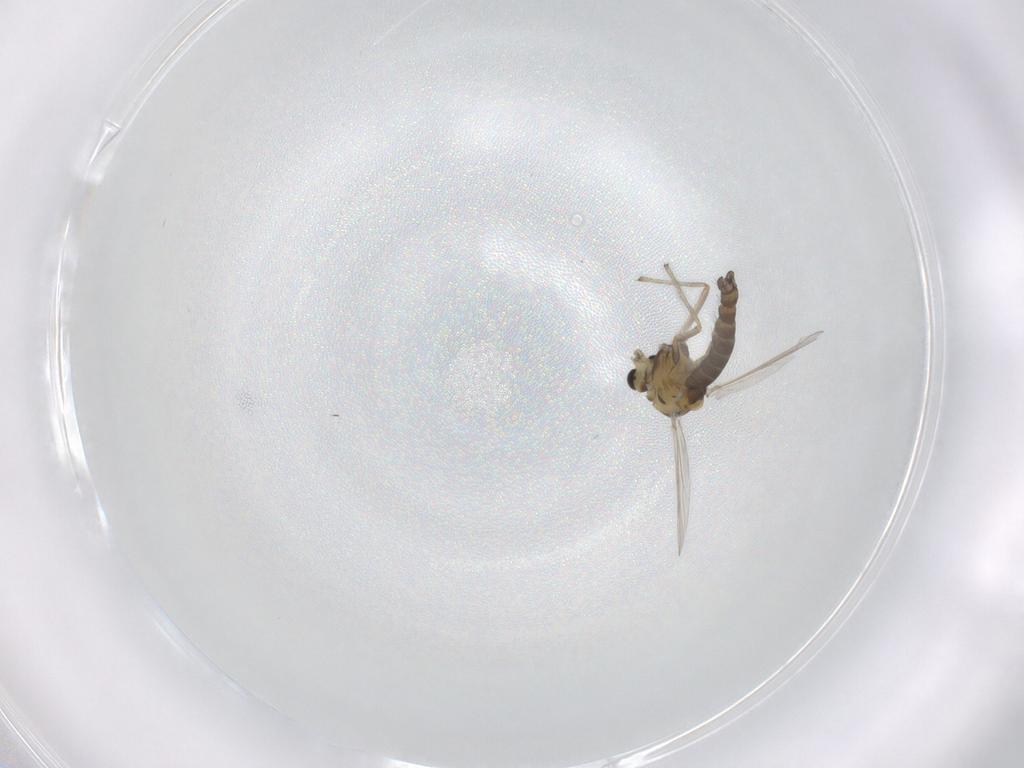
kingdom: Animalia
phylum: Arthropoda
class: Insecta
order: Diptera
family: Chironomidae
